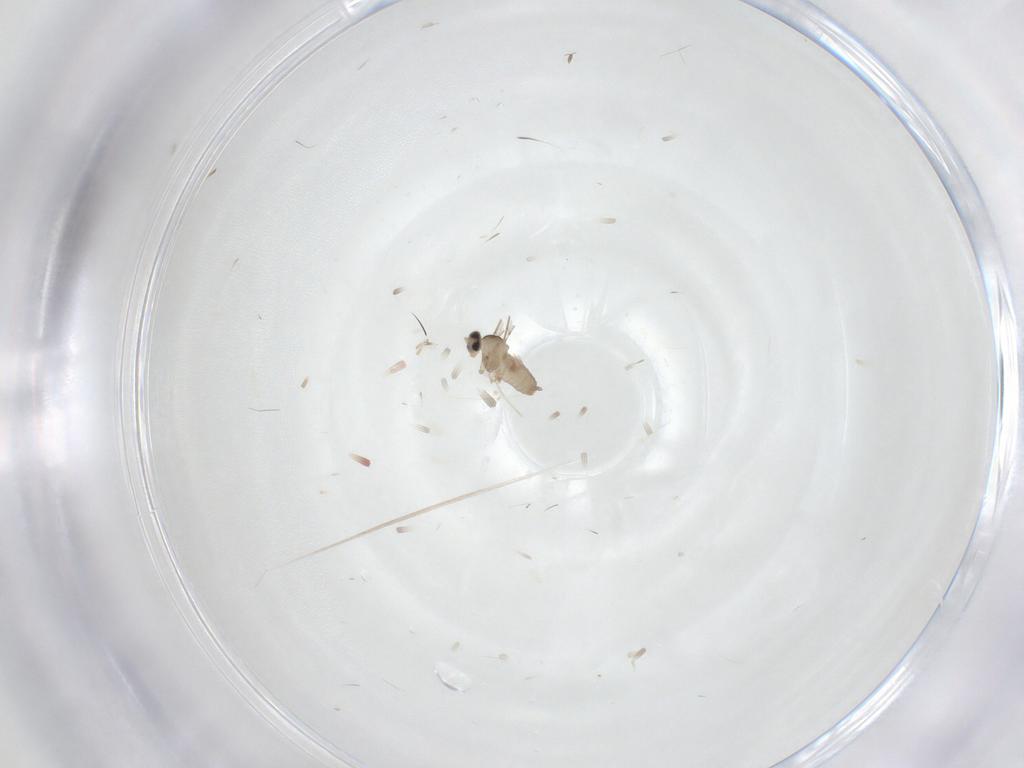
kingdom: Animalia
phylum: Arthropoda
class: Insecta
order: Diptera
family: Cecidomyiidae
